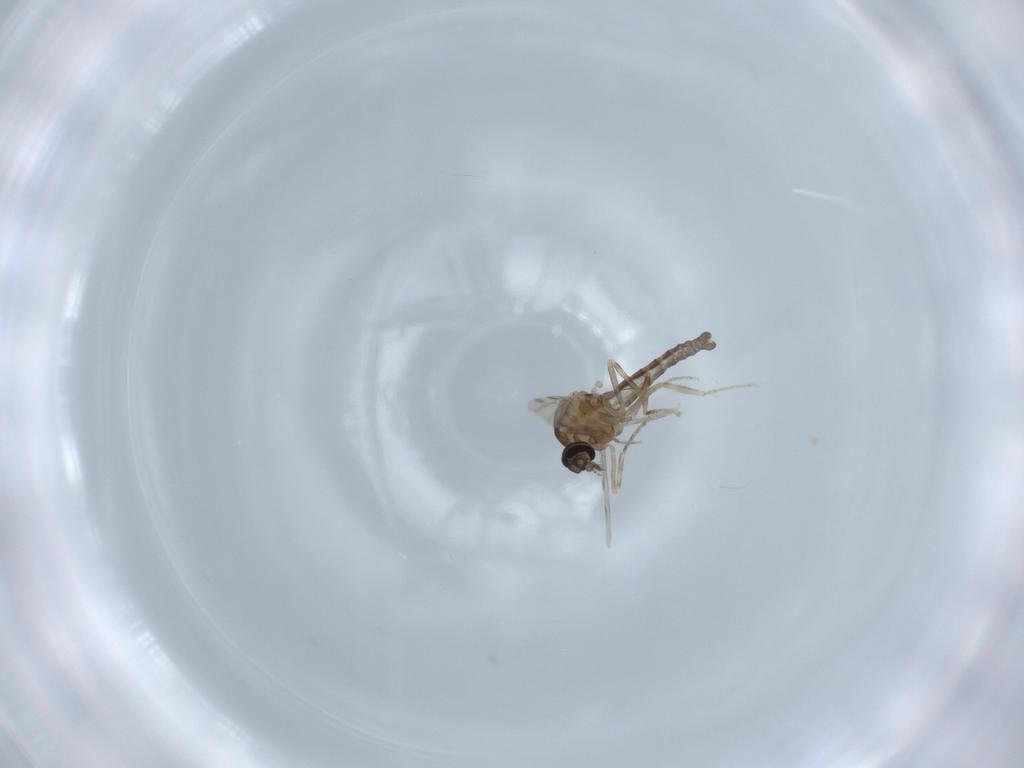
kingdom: Animalia
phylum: Arthropoda
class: Insecta
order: Diptera
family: Ceratopogonidae
